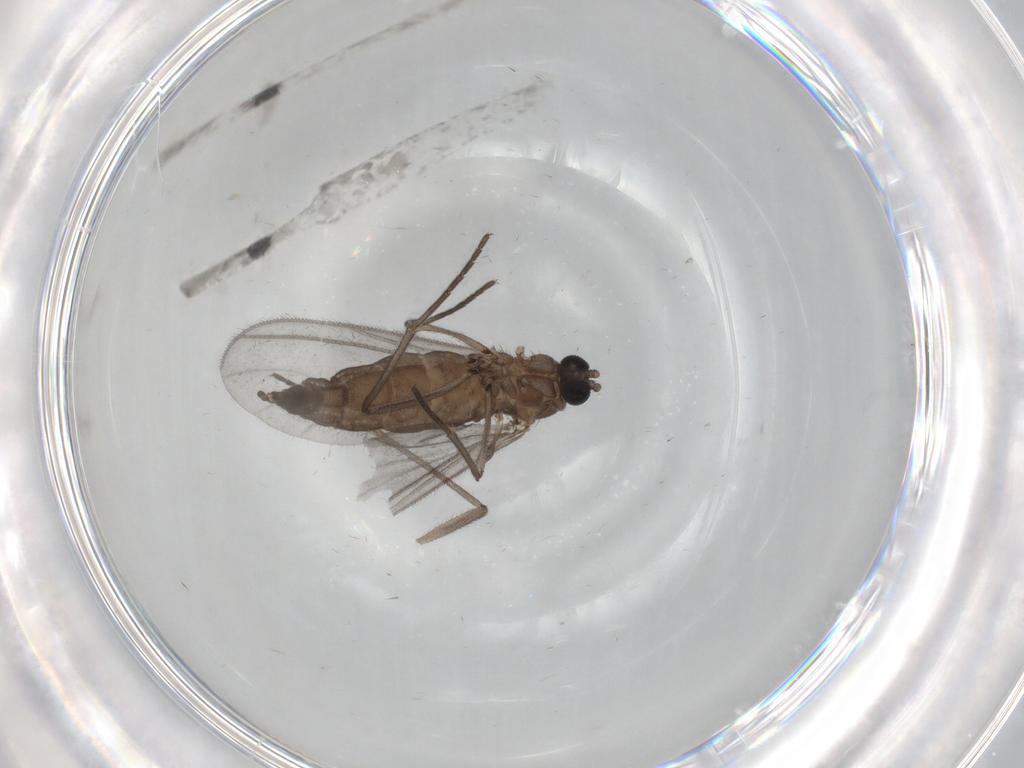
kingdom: Animalia
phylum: Arthropoda
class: Insecta
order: Diptera
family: Sciaridae
